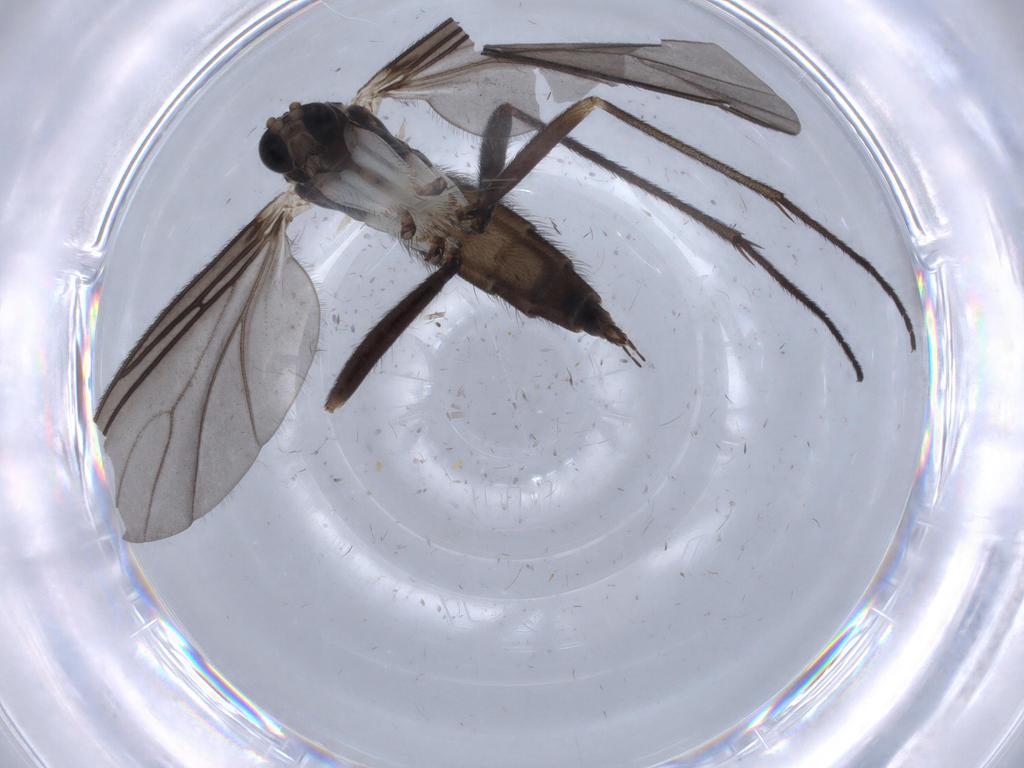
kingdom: Animalia
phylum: Arthropoda
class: Insecta
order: Diptera
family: Sciaridae
